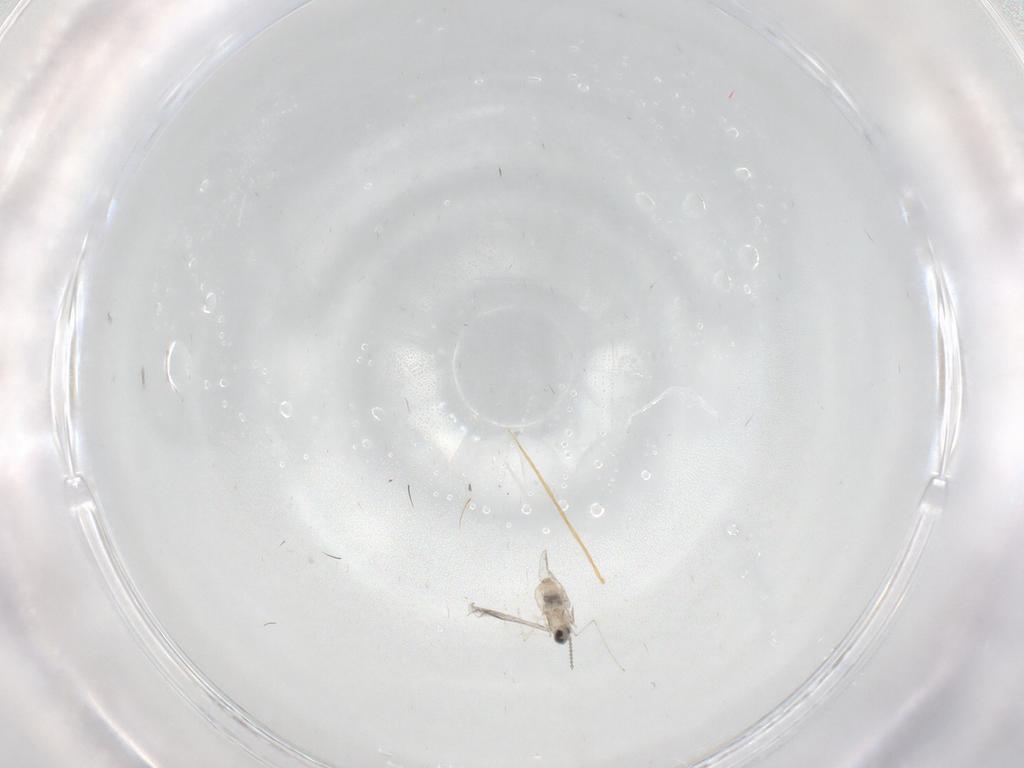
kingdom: Animalia
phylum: Arthropoda
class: Insecta
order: Diptera
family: Cecidomyiidae
